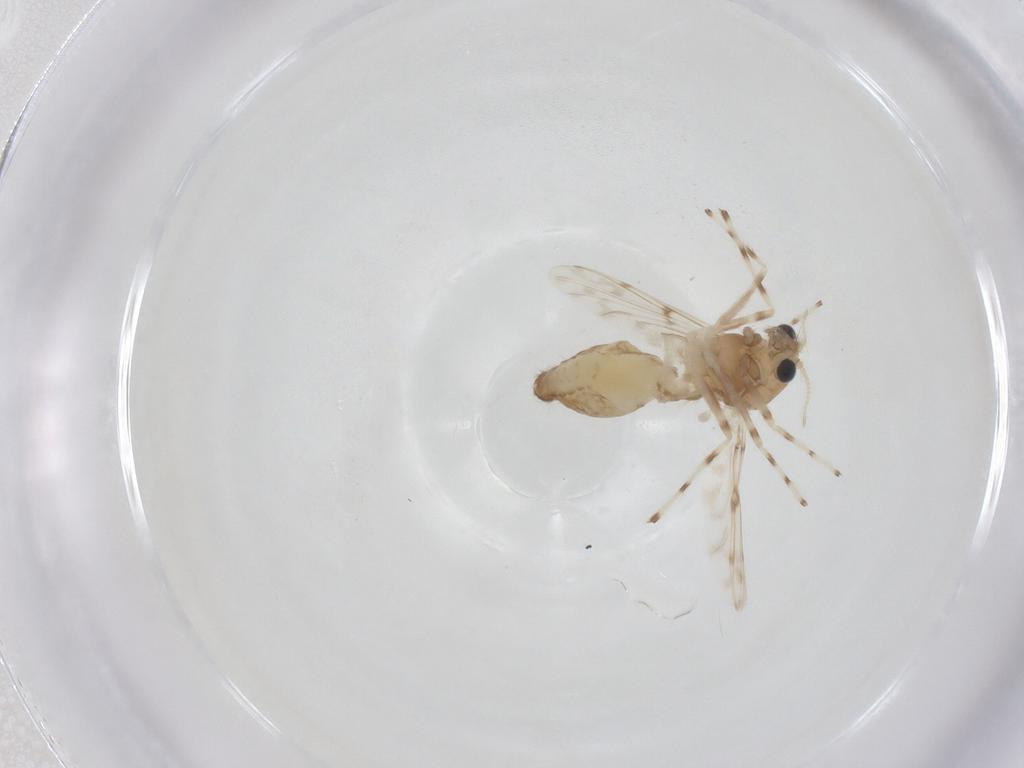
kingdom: Animalia
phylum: Arthropoda
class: Insecta
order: Diptera
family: Chironomidae
